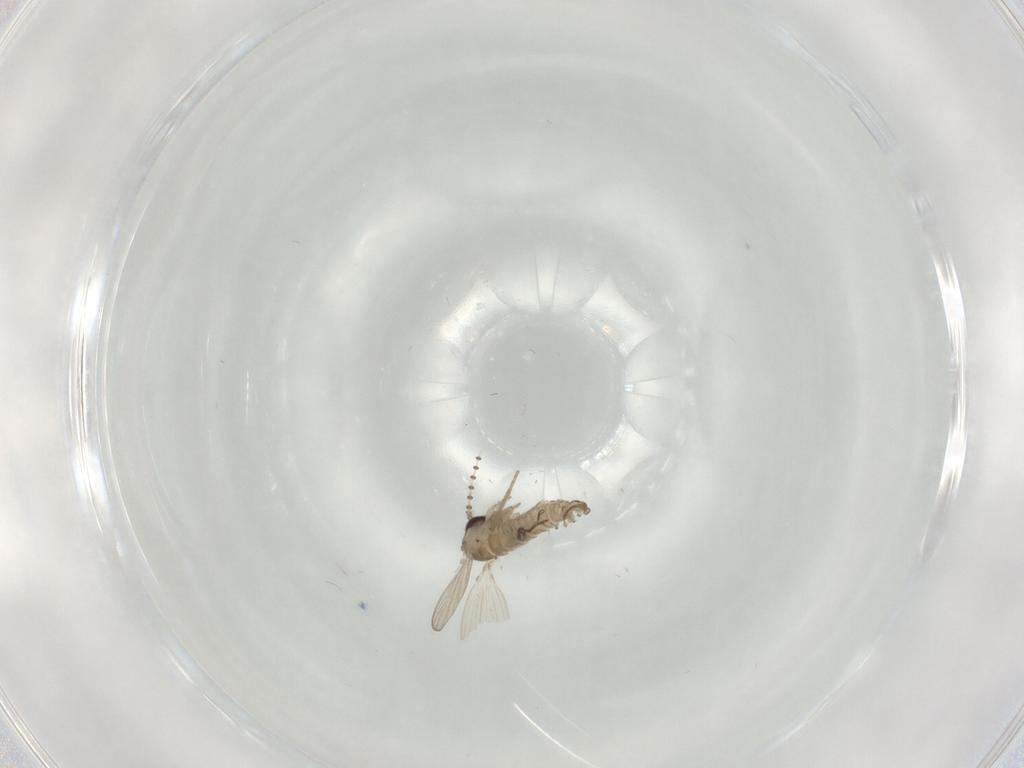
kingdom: Animalia
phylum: Arthropoda
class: Insecta
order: Diptera
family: Psychodidae
